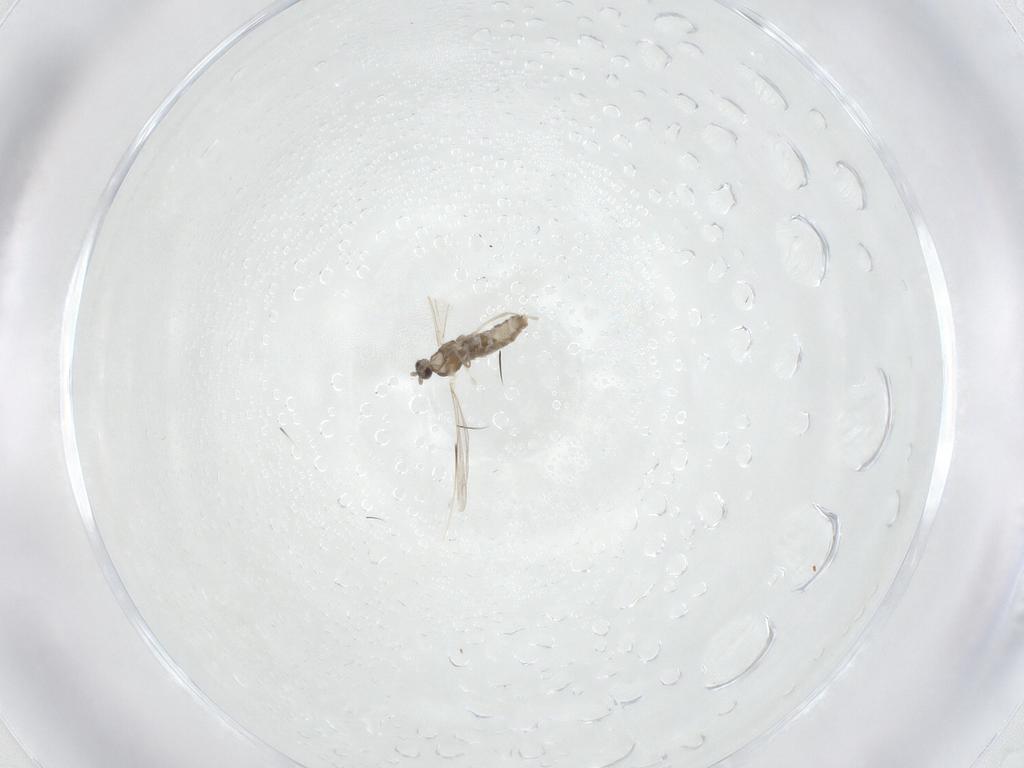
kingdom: Animalia
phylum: Arthropoda
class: Insecta
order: Diptera
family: Cecidomyiidae
